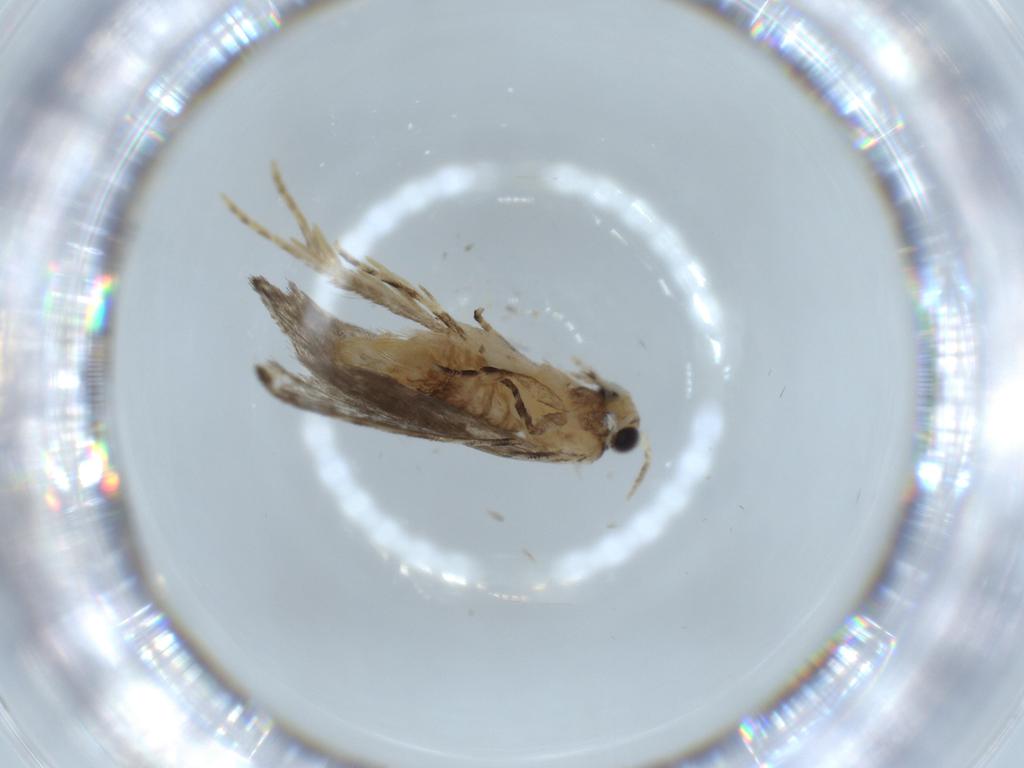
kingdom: Animalia
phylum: Arthropoda
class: Insecta
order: Lepidoptera
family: Tineidae
